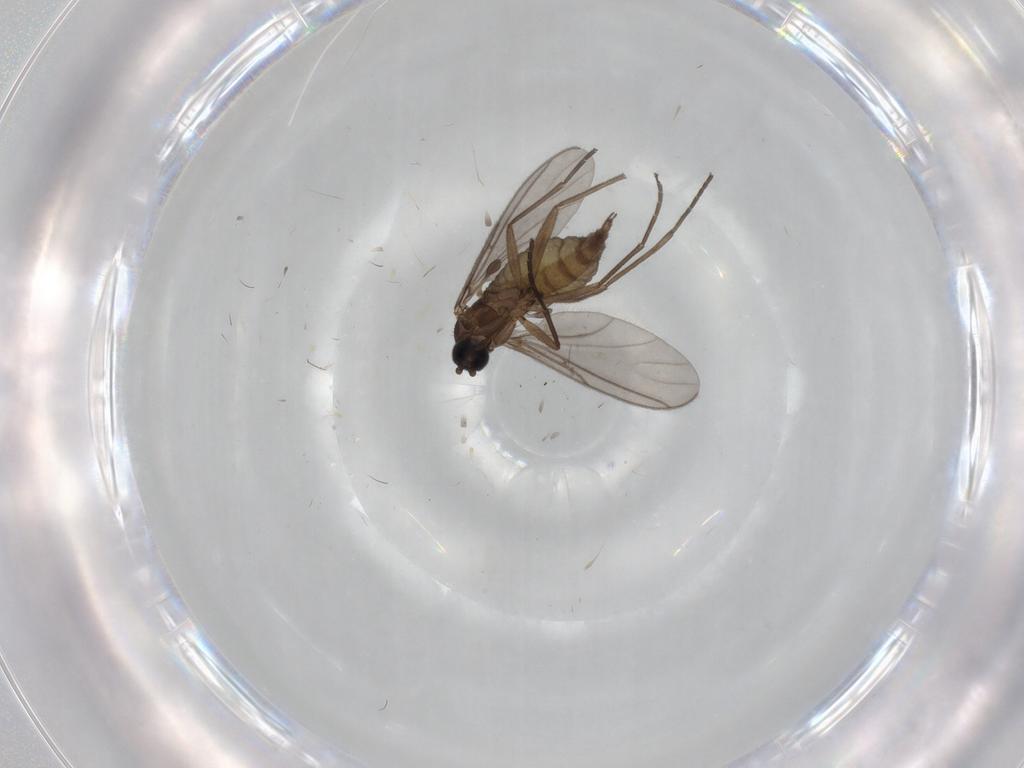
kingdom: Animalia
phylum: Arthropoda
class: Insecta
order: Diptera
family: Sciaridae
